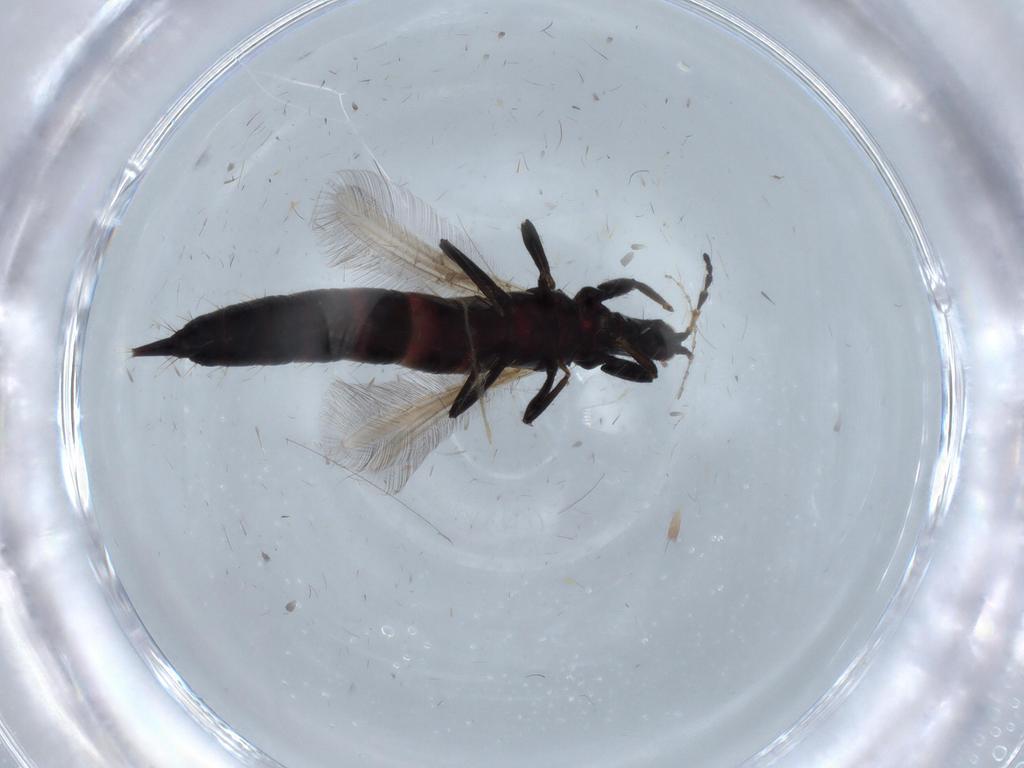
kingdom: Animalia
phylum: Arthropoda
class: Insecta
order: Thysanoptera
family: Phlaeothripidae
